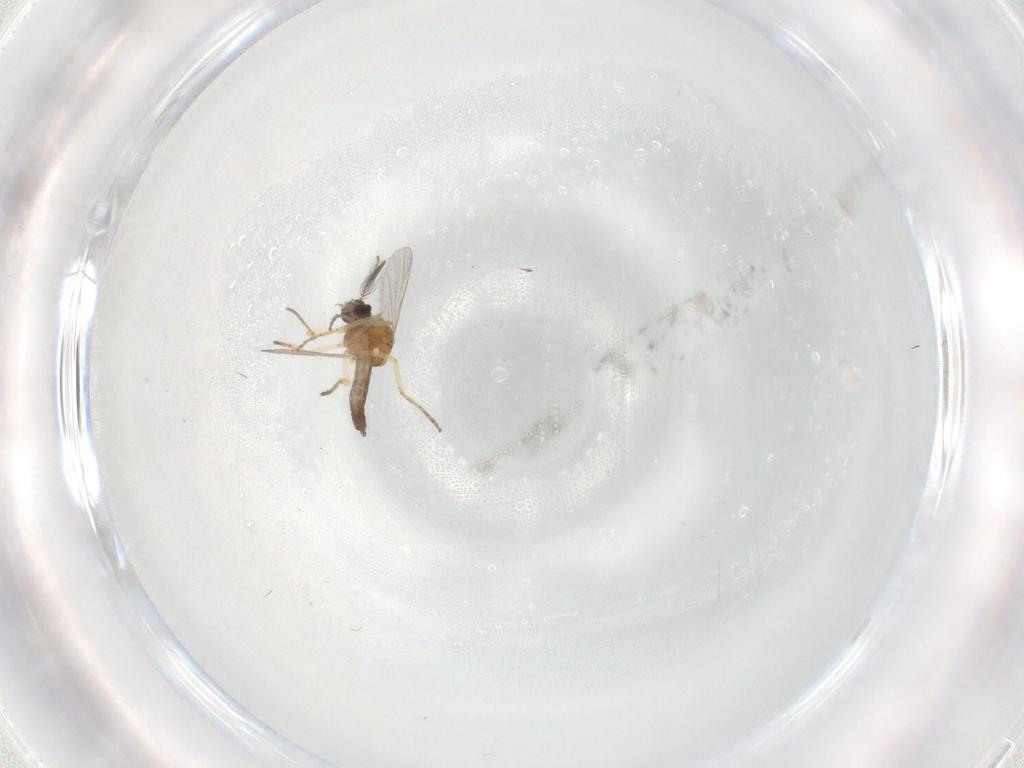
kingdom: Animalia
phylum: Arthropoda
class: Insecta
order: Diptera
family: Ceratopogonidae
